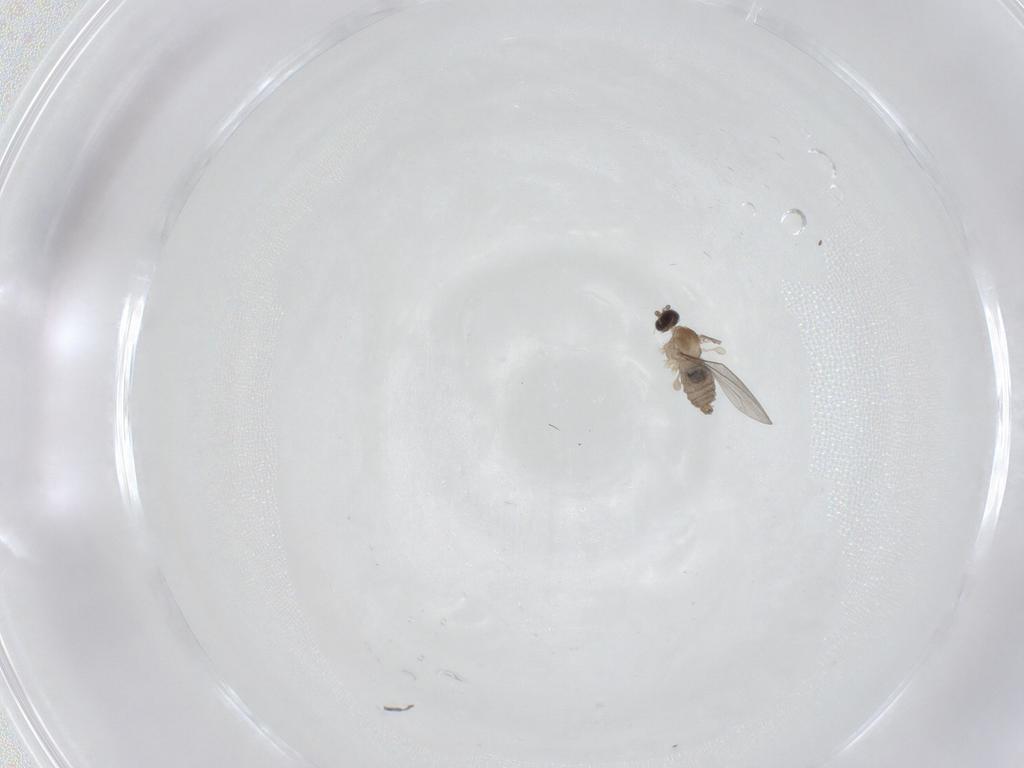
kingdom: Animalia
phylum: Arthropoda
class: Insecta
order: Diptera
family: Cecidomyiidae
